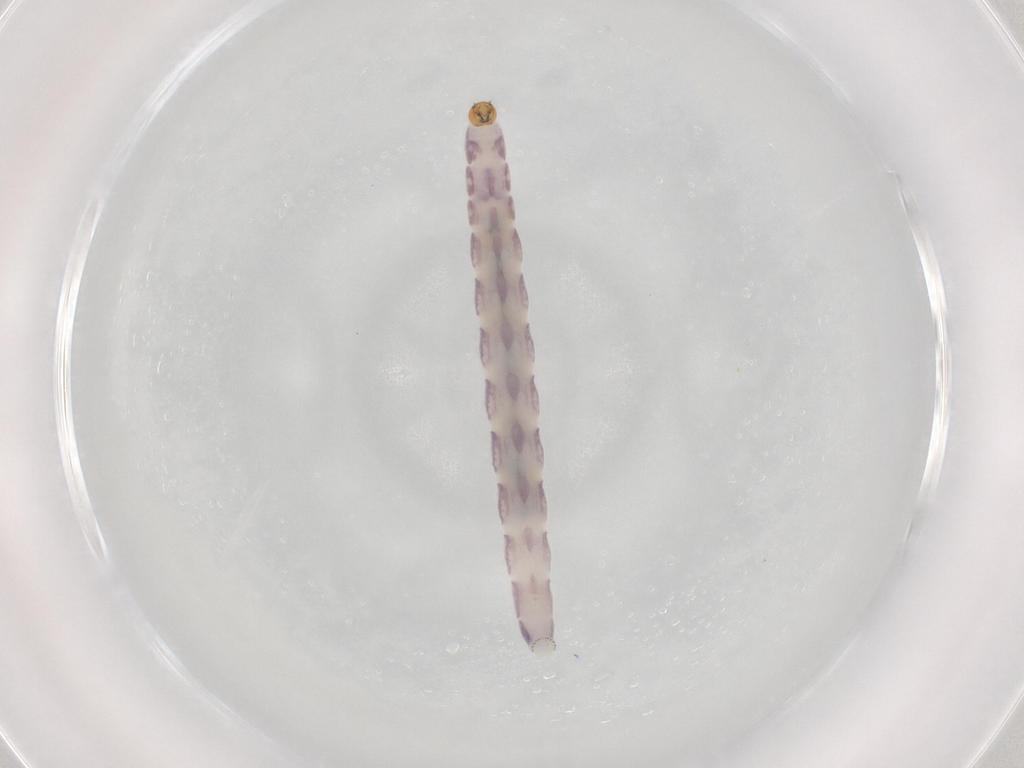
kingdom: Animalia
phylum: Arthropoda
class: Insecta
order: Diptera
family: Chironomidae
